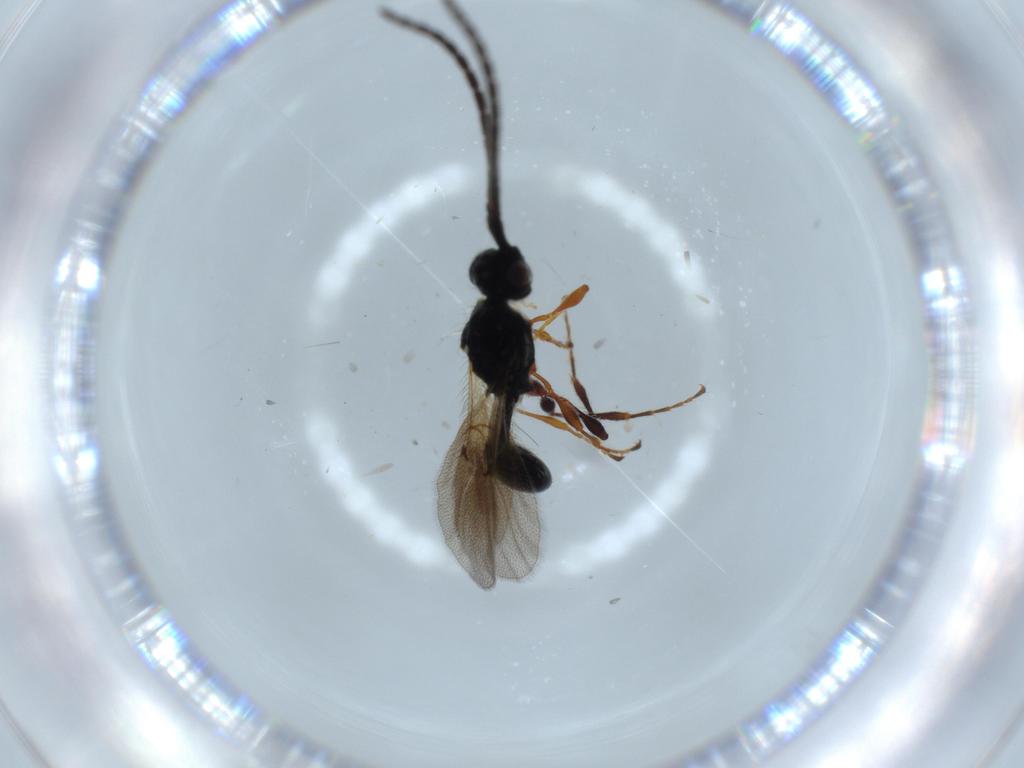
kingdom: Animalia
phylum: Arthropoda
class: Insecta
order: Hymenoptera
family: Diapriidae
